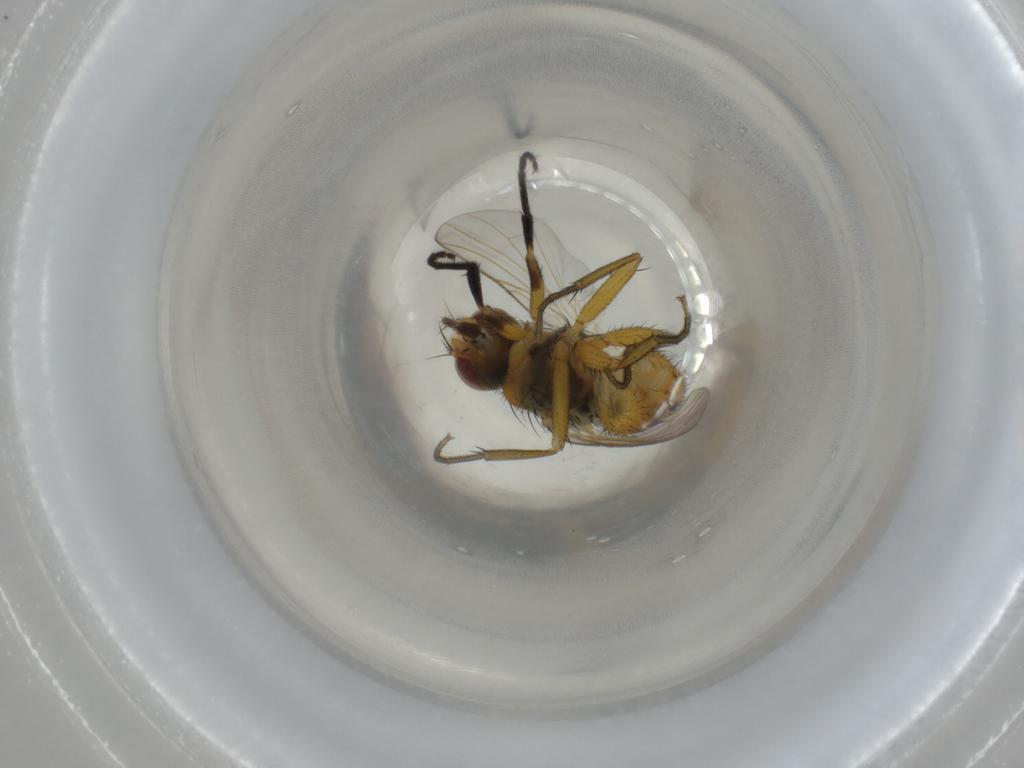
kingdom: Animalia
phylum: Arthropoda
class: Insecta
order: Diptera
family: Muscidae
